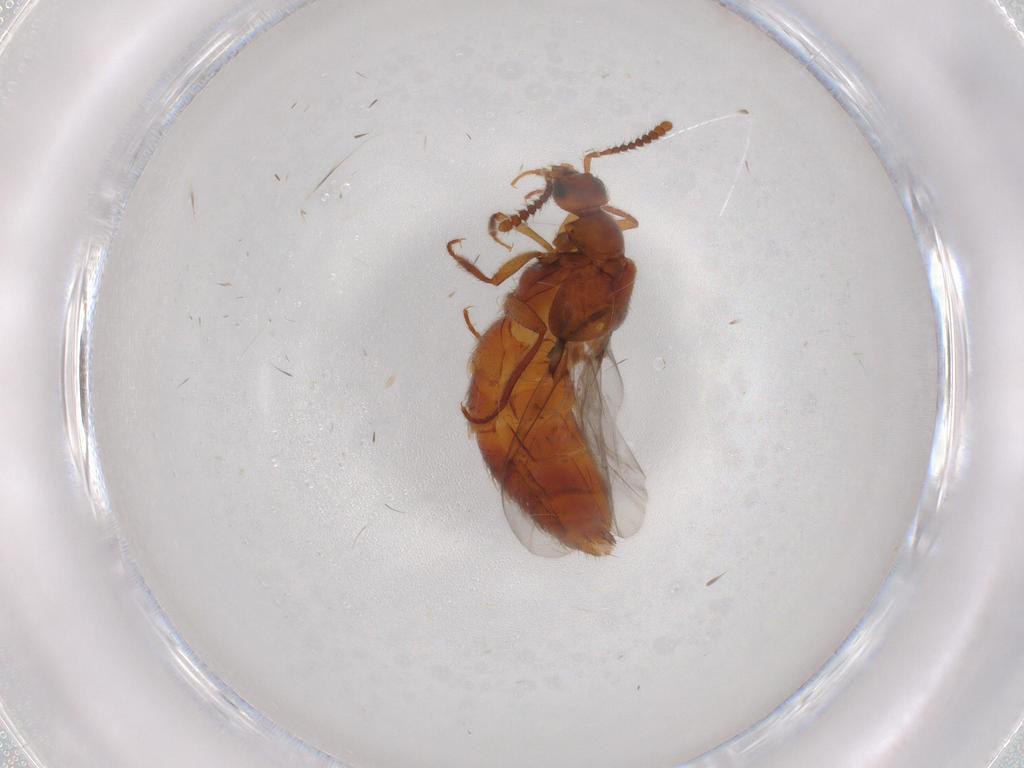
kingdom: Animalia
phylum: Arthropoda
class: Insecta
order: Coleoptera
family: Staphylinidae
